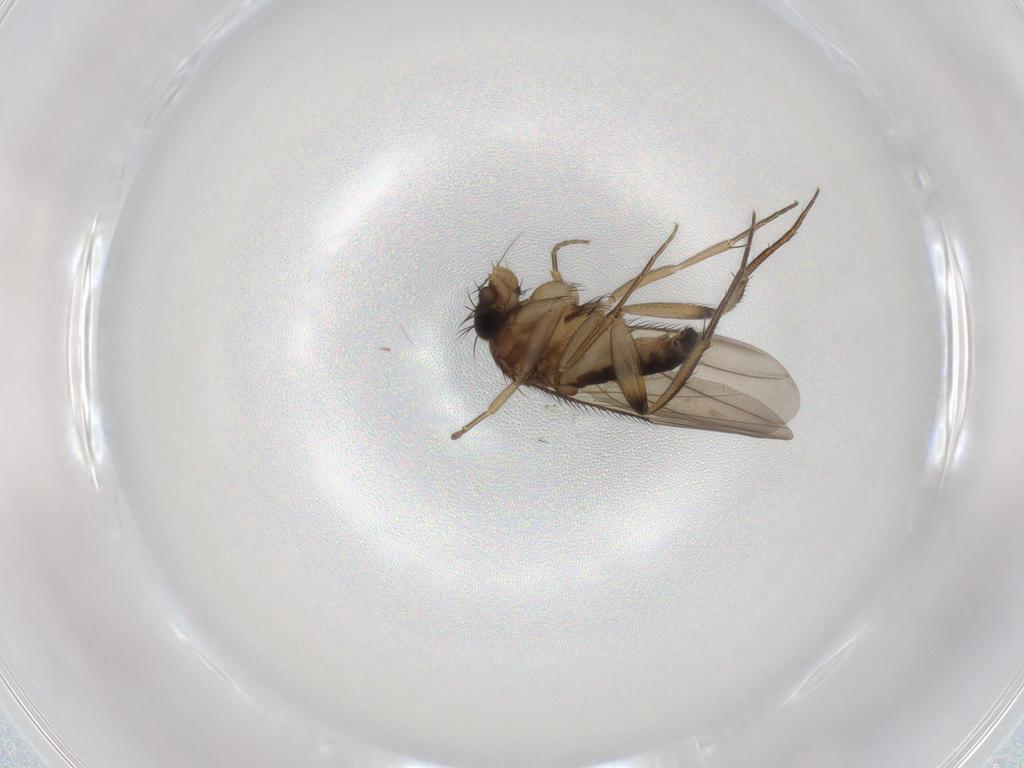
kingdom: Animalia
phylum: Arthropoda
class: Insecta
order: Diptera
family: Phoridae
